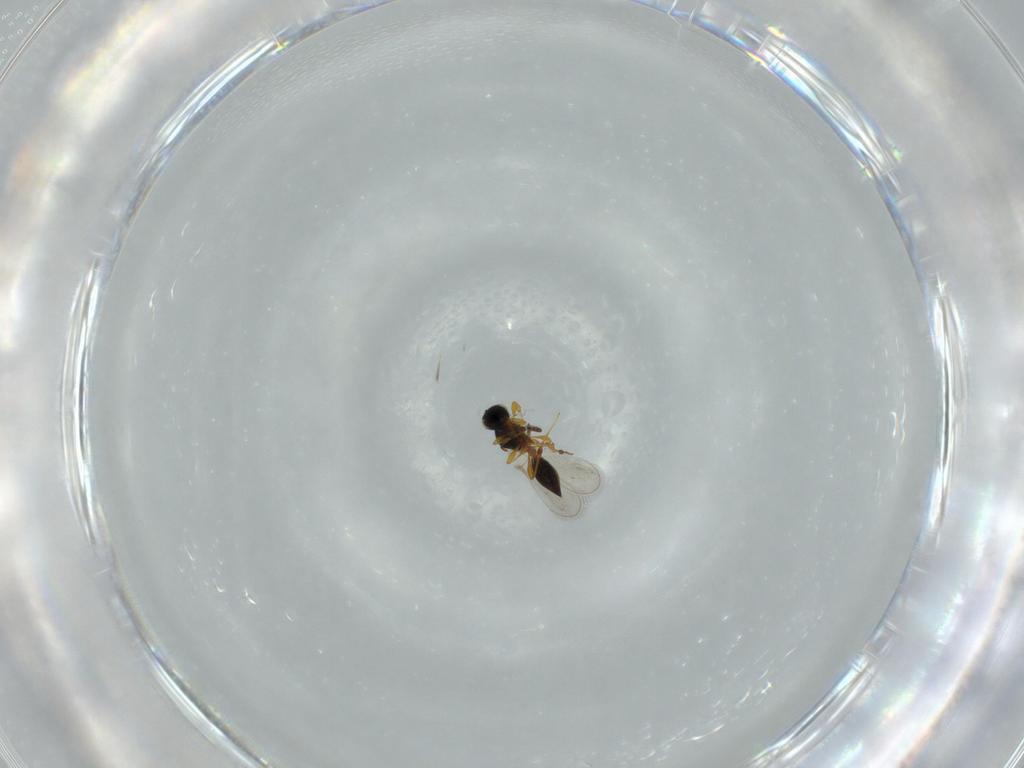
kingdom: Animalia
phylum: Arthropoda
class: Insecta
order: Hymenoptera
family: Platygastridae
